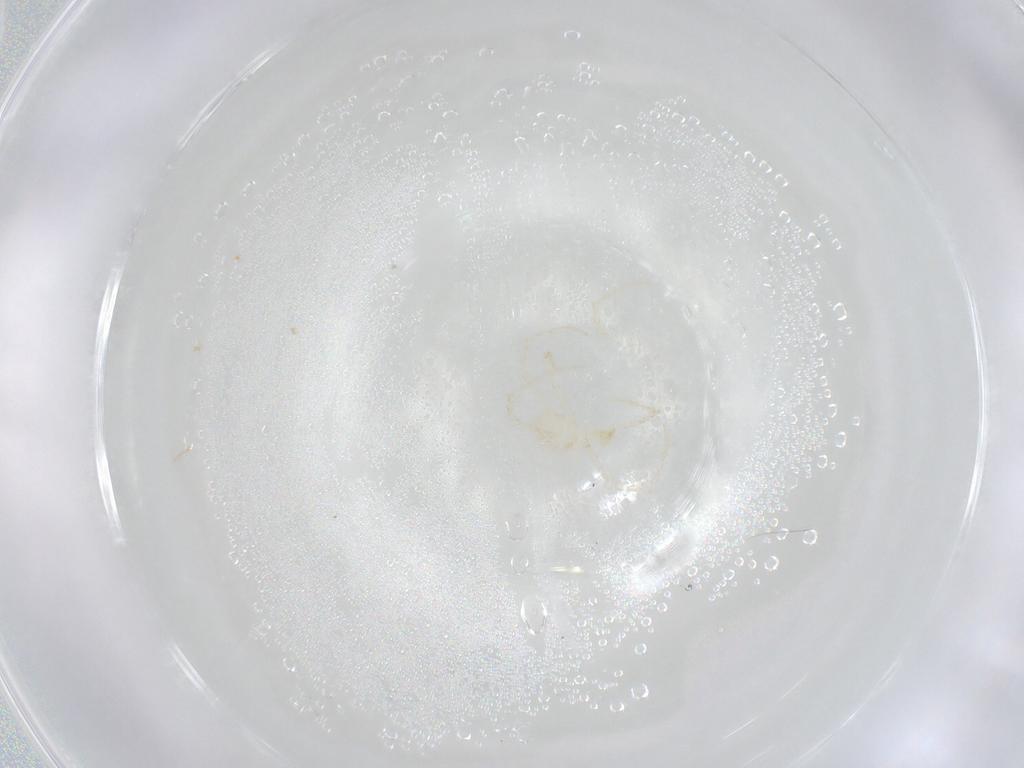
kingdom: Animalia
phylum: Arthropoda
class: Arachnida
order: Trombidiformes
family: Erythraeidae
